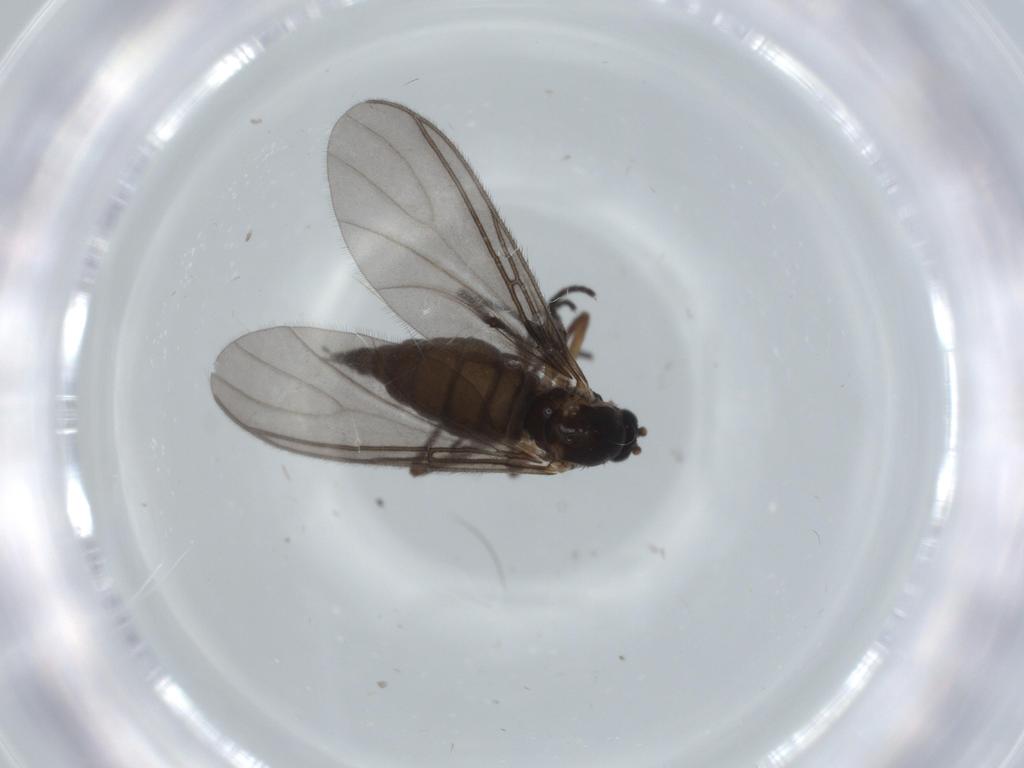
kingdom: Animalia
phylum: Arthropoda
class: Insecta
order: Diptera
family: Sciaridae
